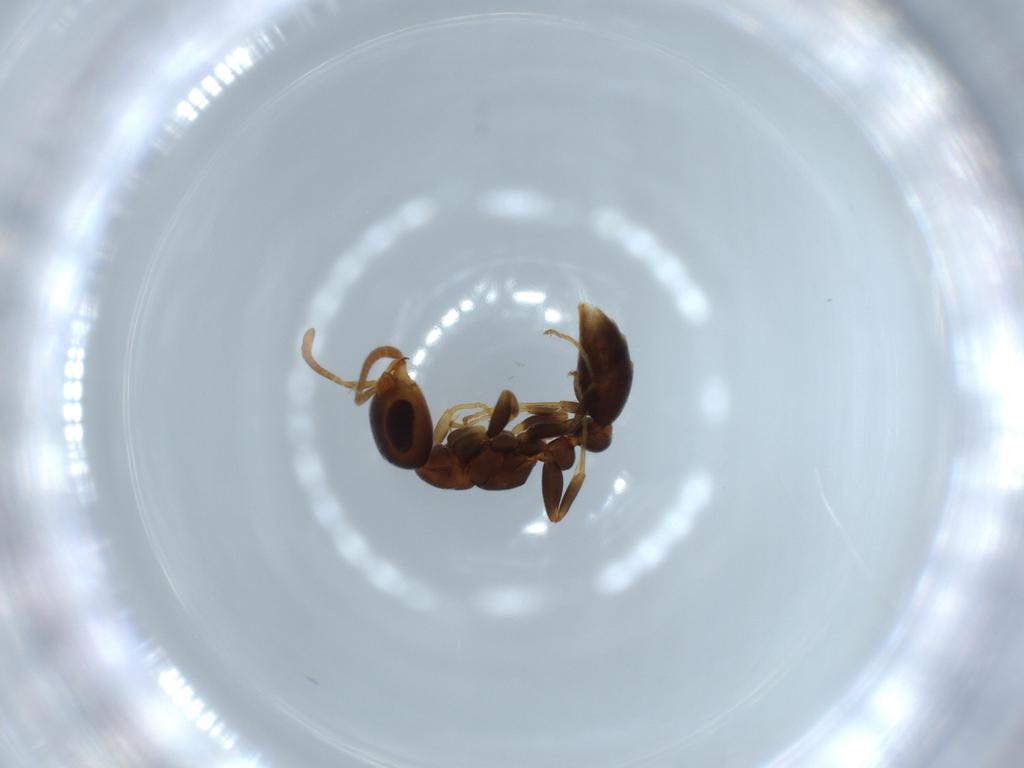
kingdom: Animalia
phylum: Arthropoda
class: Insecta
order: Hymenoptera
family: Formicidae
